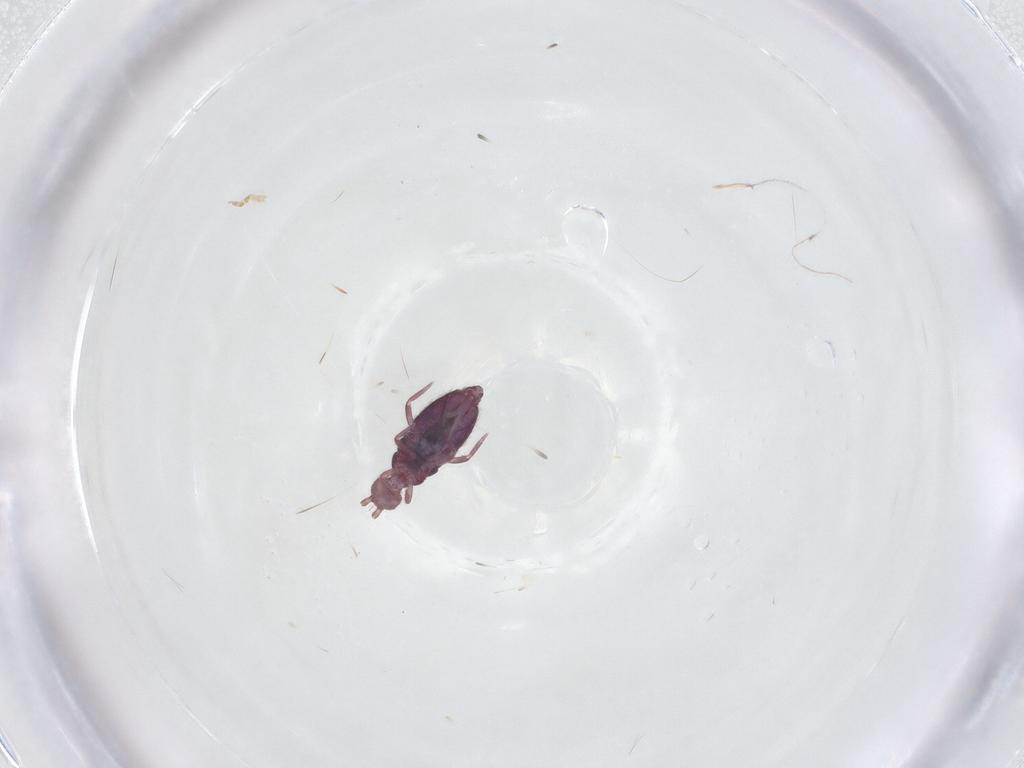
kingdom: Animalia
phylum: Arthropoda
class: Collembola
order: Entomobryomorpha
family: Entomobryidae
